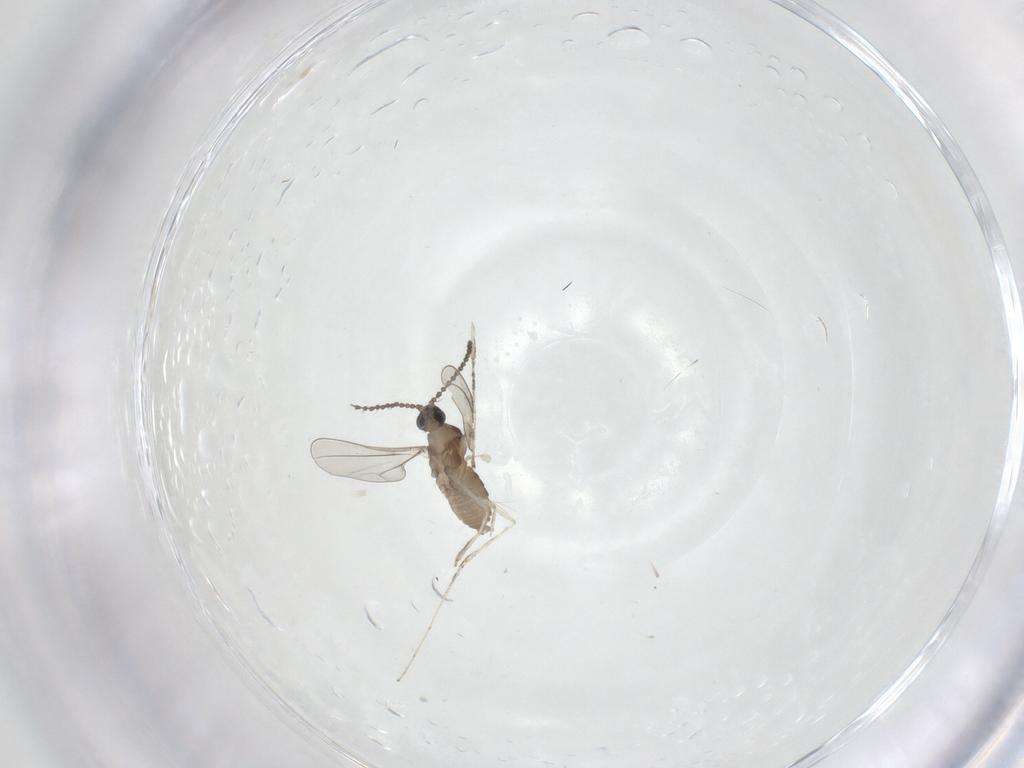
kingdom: Animalia
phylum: Arthropoda
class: Insecta
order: Diptera
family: Cecidomyiidae
